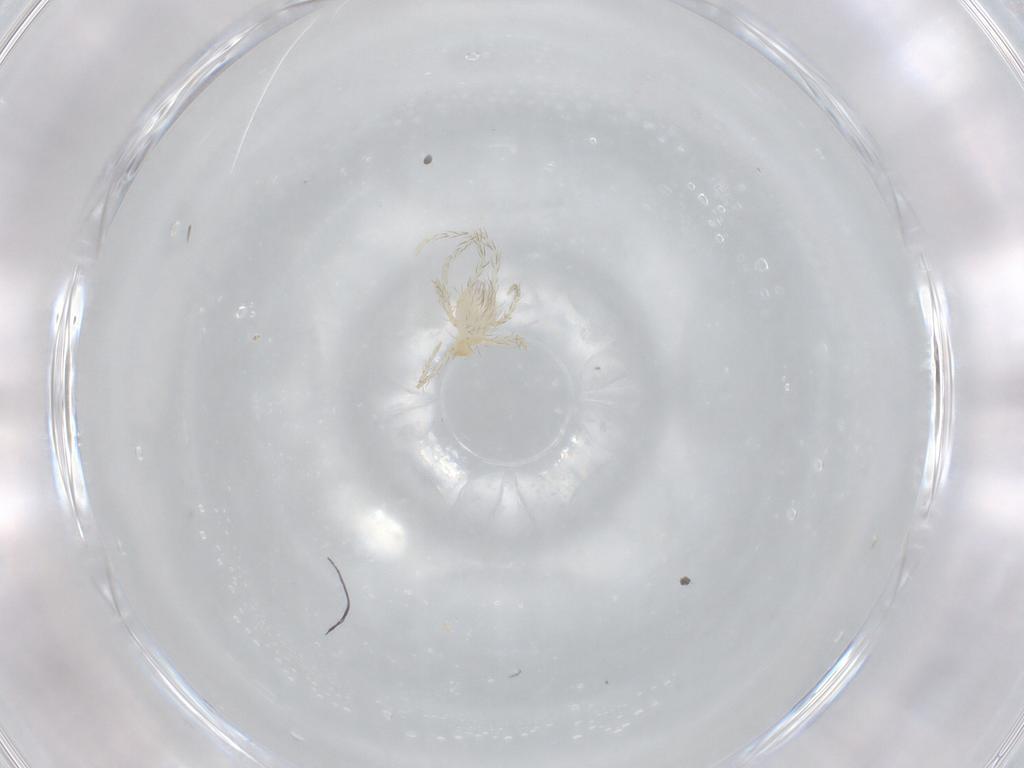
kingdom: Animalia
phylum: Arthropoda
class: Arachnida
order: Trombidiformes
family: Erythraeidae
